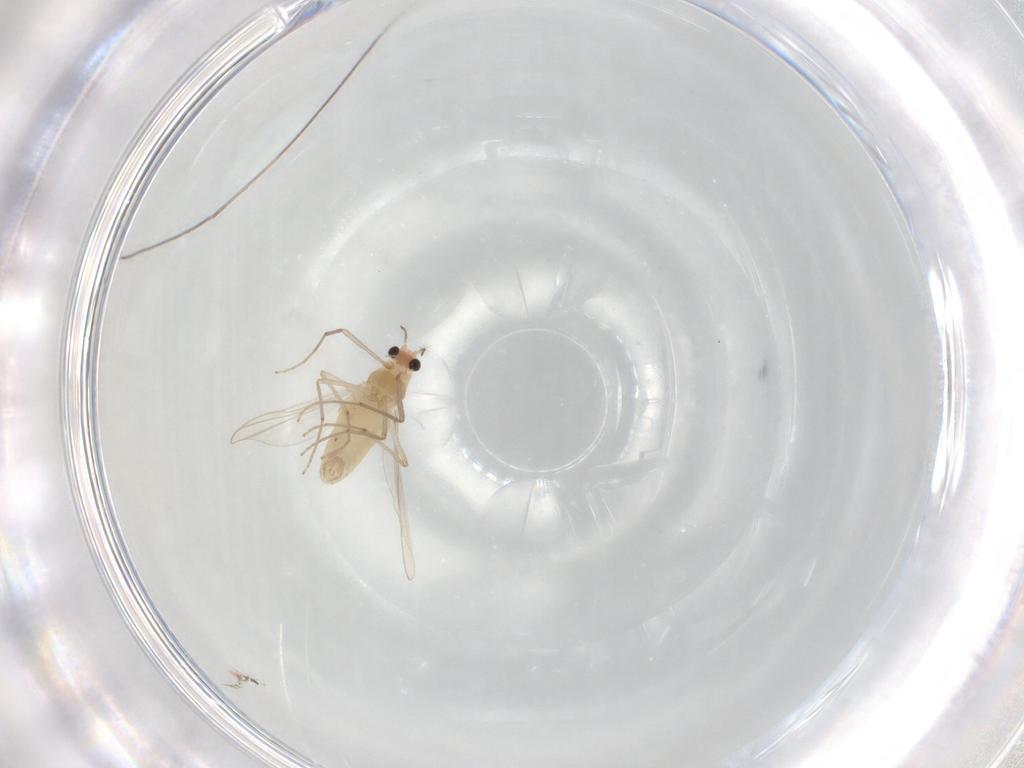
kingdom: Animalia
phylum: Arthropoda
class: Insecta
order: Diptera
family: Chironomidae
